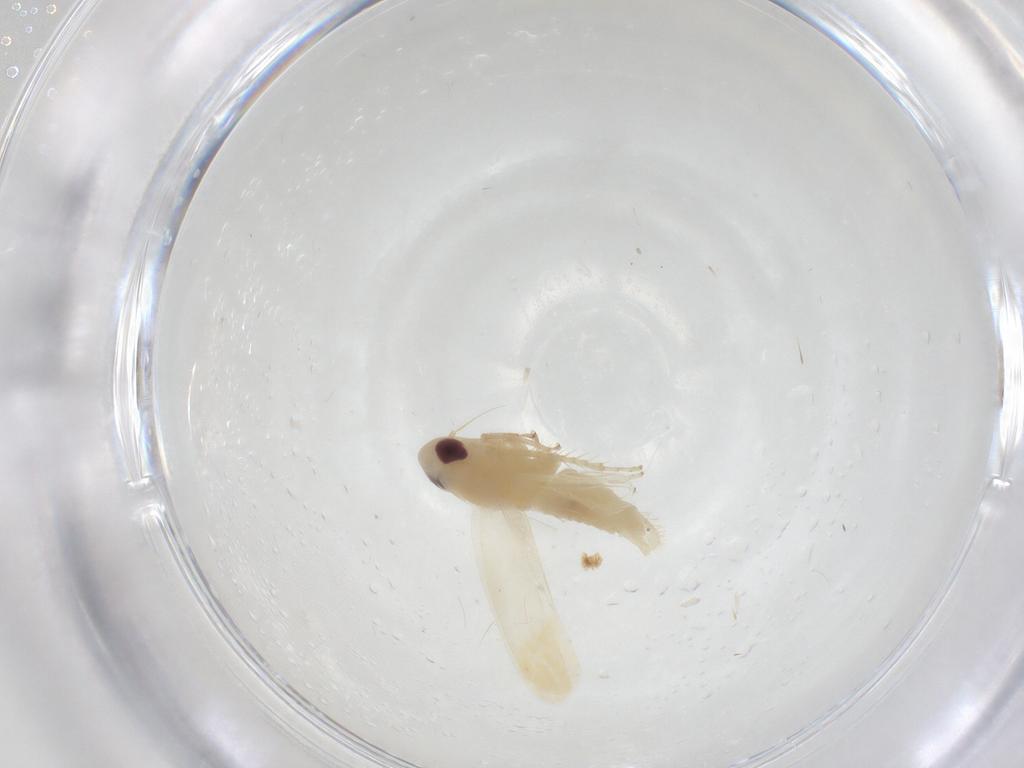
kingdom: Animalia
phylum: Arthropoda
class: Insecta
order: Hemiptera
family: Cicadellidae
